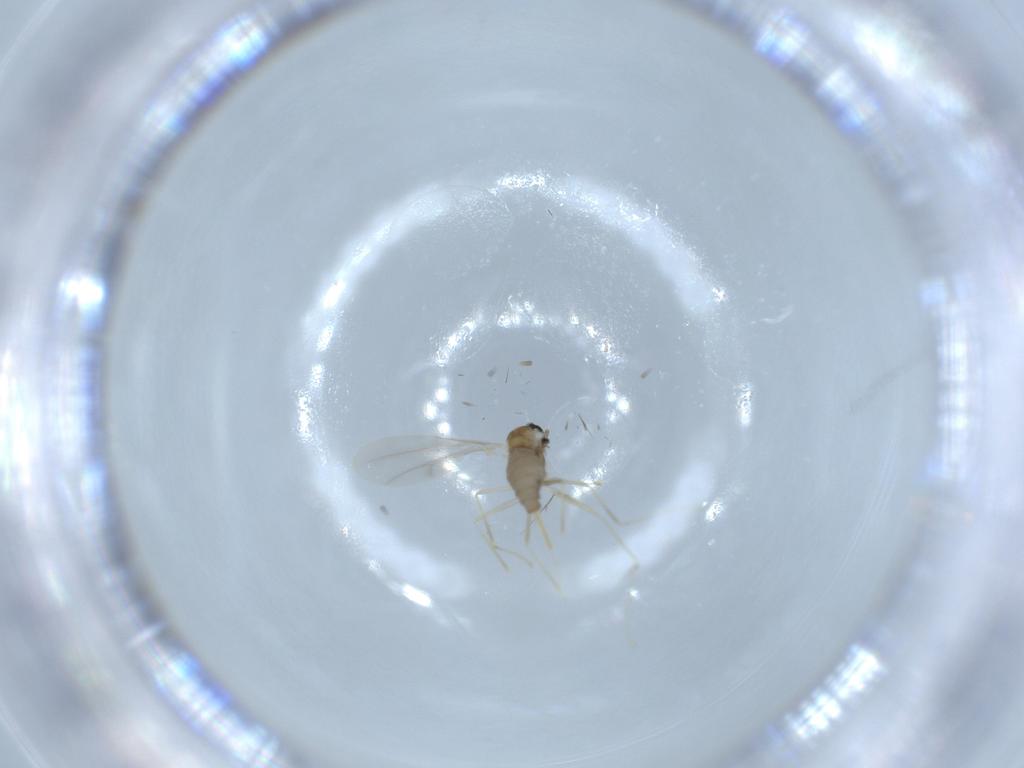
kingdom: Animalia
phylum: Arthropoda
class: Insecta
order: Diptera
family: Cecidomyiidae
